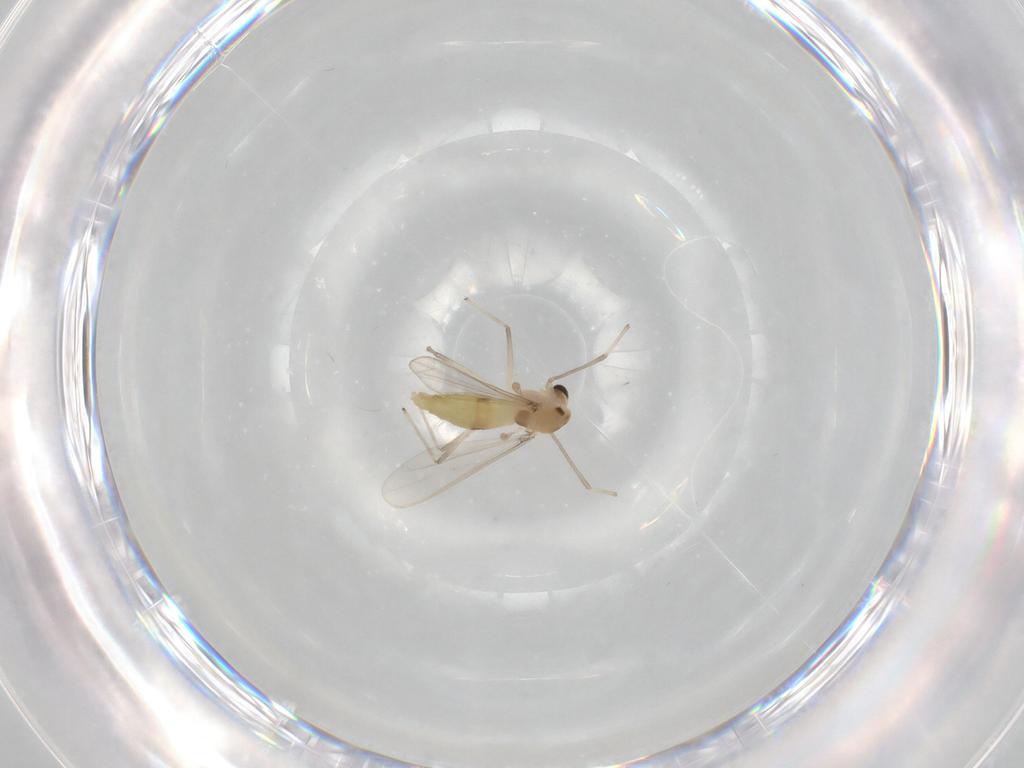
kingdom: Animalia
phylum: Arthropoda
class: Insecta
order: Diptera
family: Chironomidae
